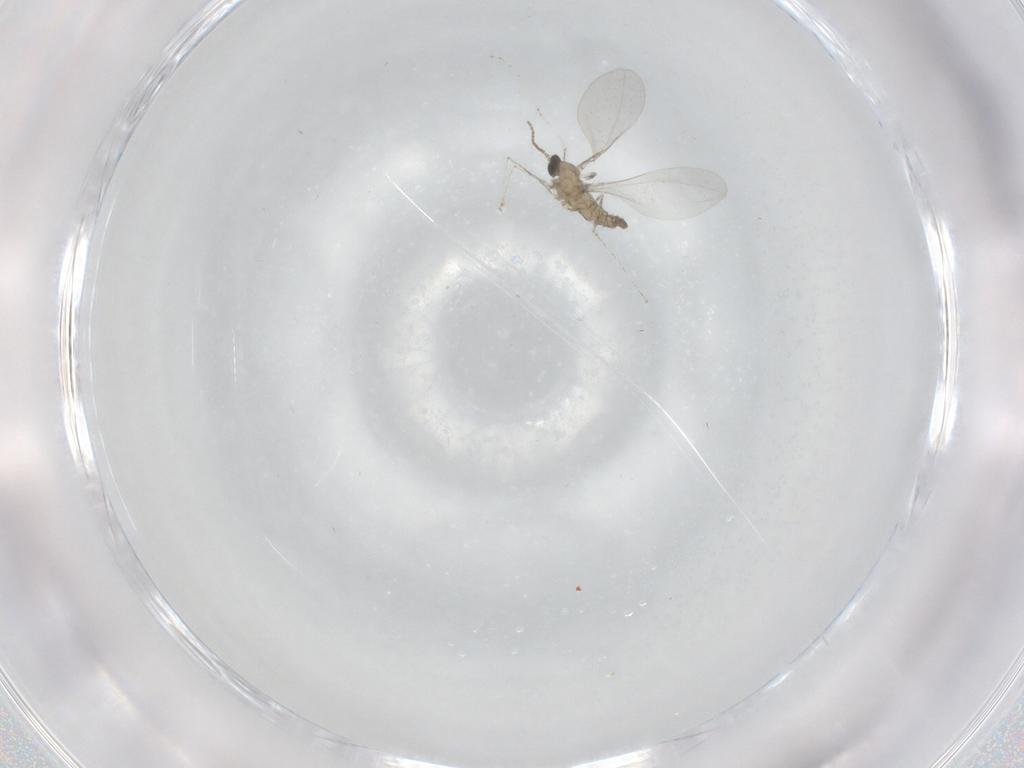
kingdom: Animalia
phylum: Arthropoda
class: Insecta
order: Diptera
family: Cecidomyiidae
